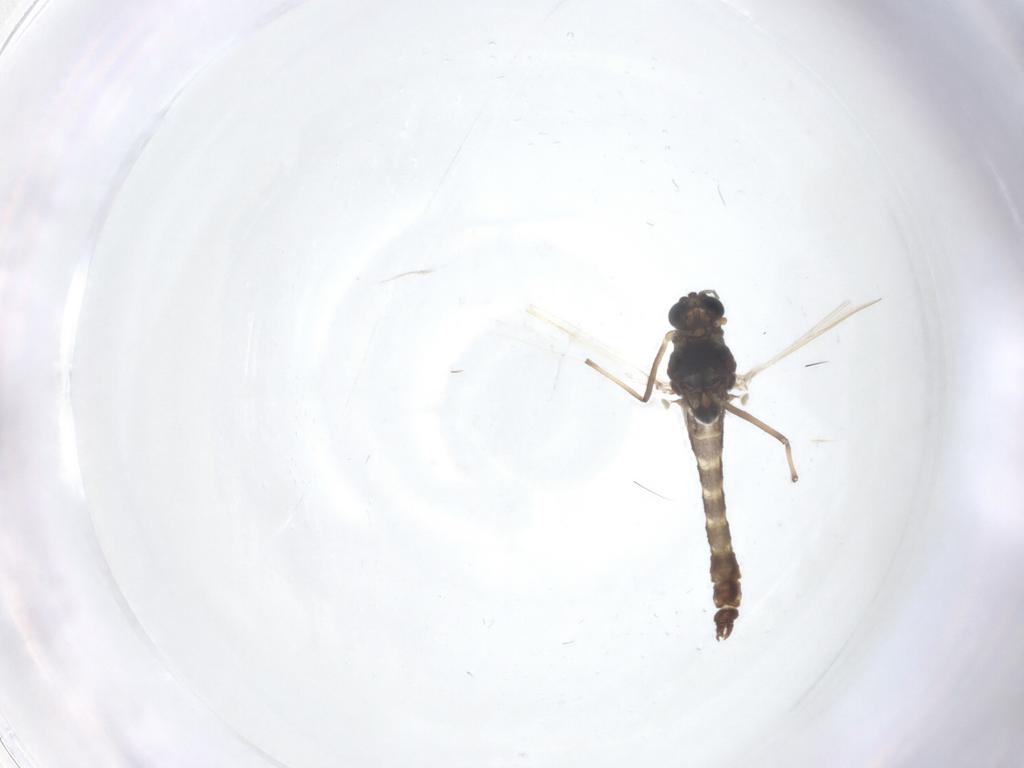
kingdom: Animalia
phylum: Arthropoda
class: Insecta
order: Diptera
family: Chironomidae
